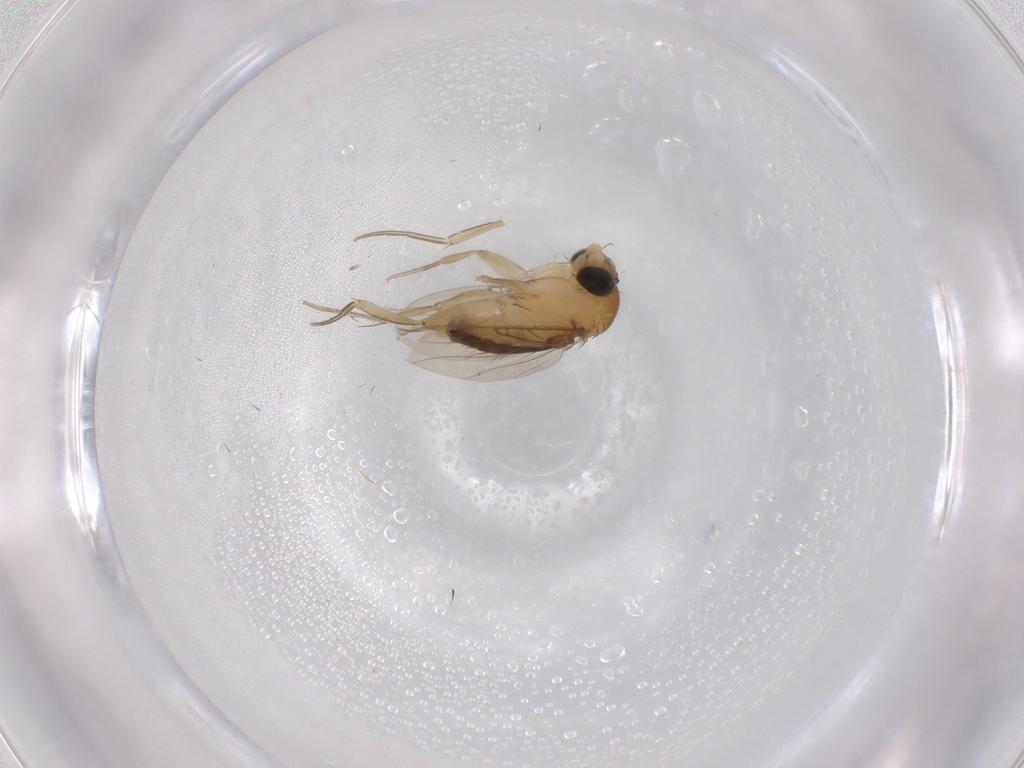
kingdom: Animalia
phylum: Arthropoda
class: Insecta
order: Diptera
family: Phoridae
